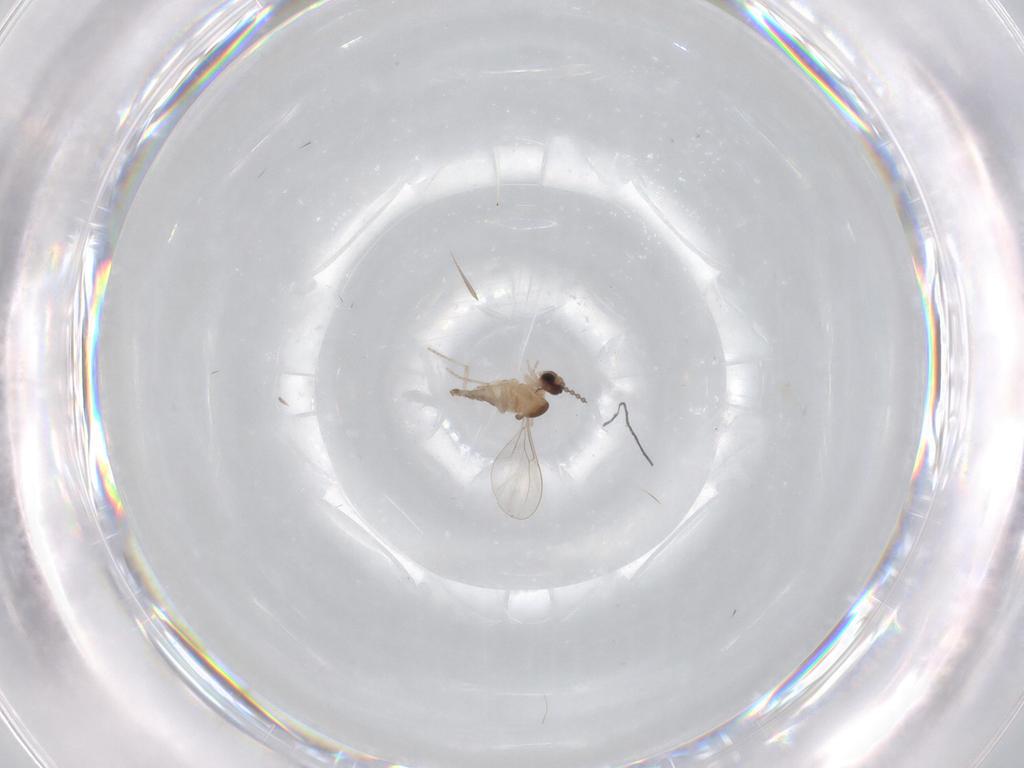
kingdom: Animalia
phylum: Arthropoda
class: Insecta
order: Diptera
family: Cecidomyiidae
